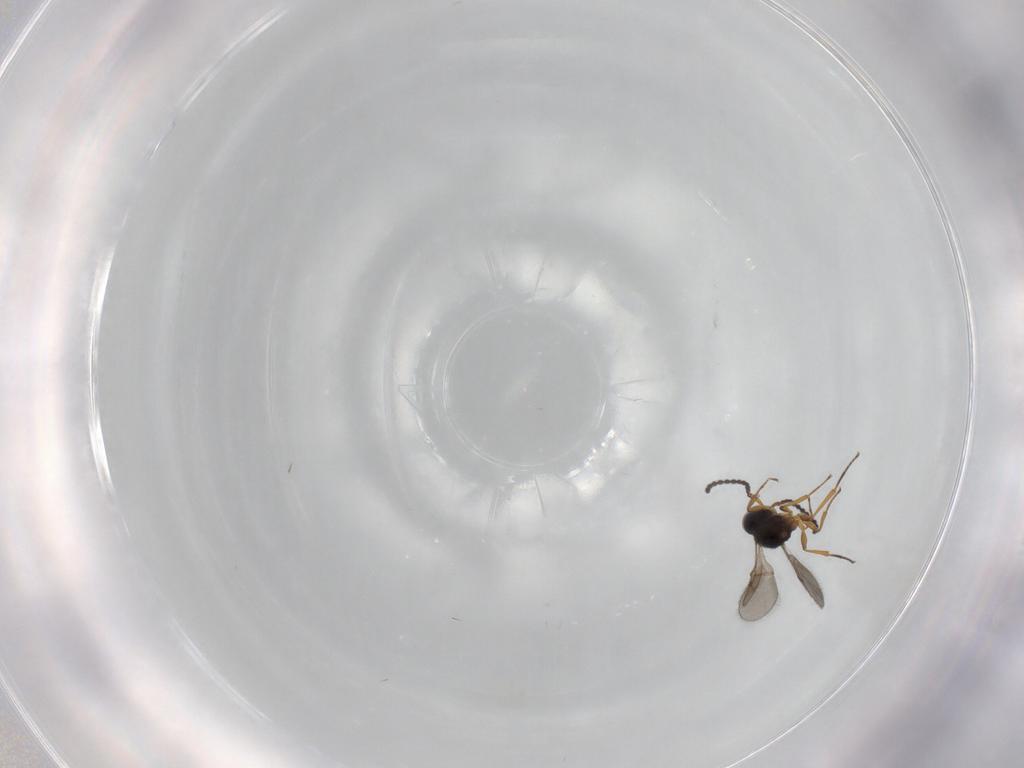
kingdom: Animalia
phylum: Arthropoda
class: Insecta
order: Hymenoptera
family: Scelionidae
